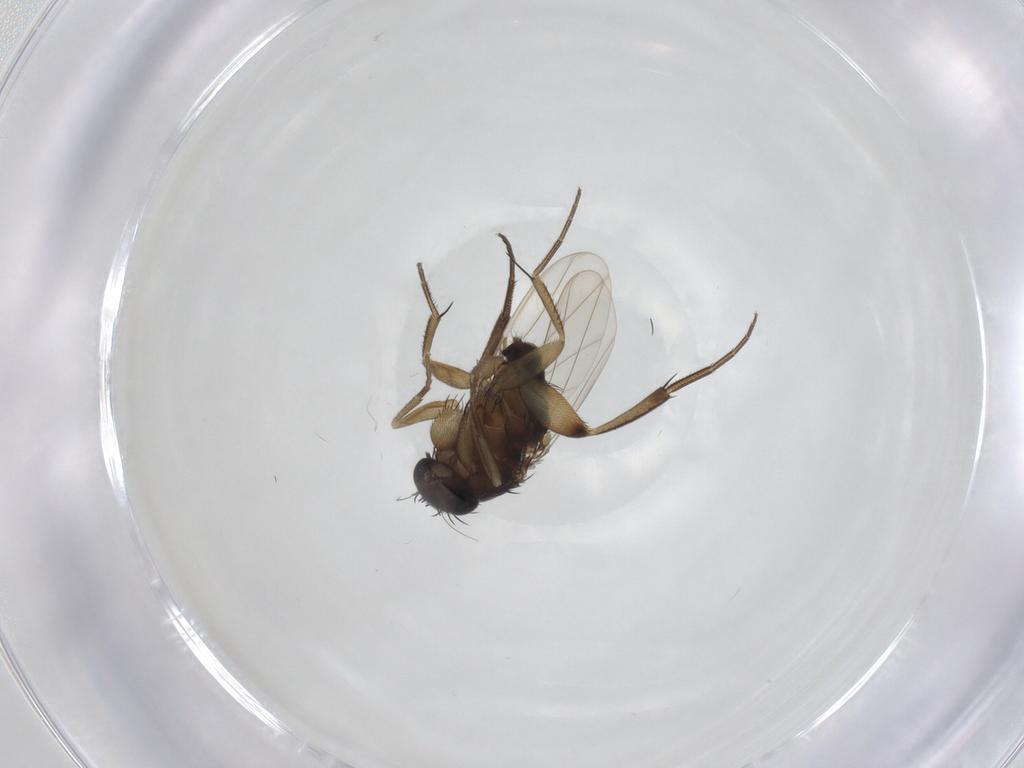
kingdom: Animalia
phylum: Arthropoda
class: Insecta
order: Diptera
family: Phoridae
